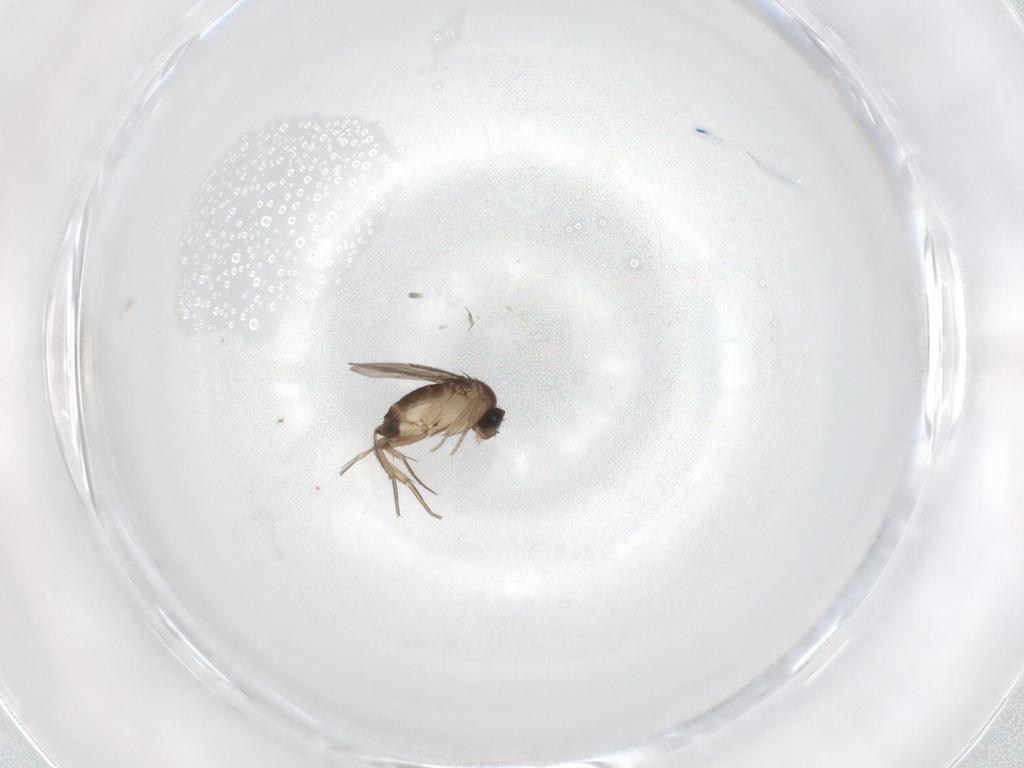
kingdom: Animalia
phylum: Arthropoda
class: Insecta
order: Diptera
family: Phoridae
